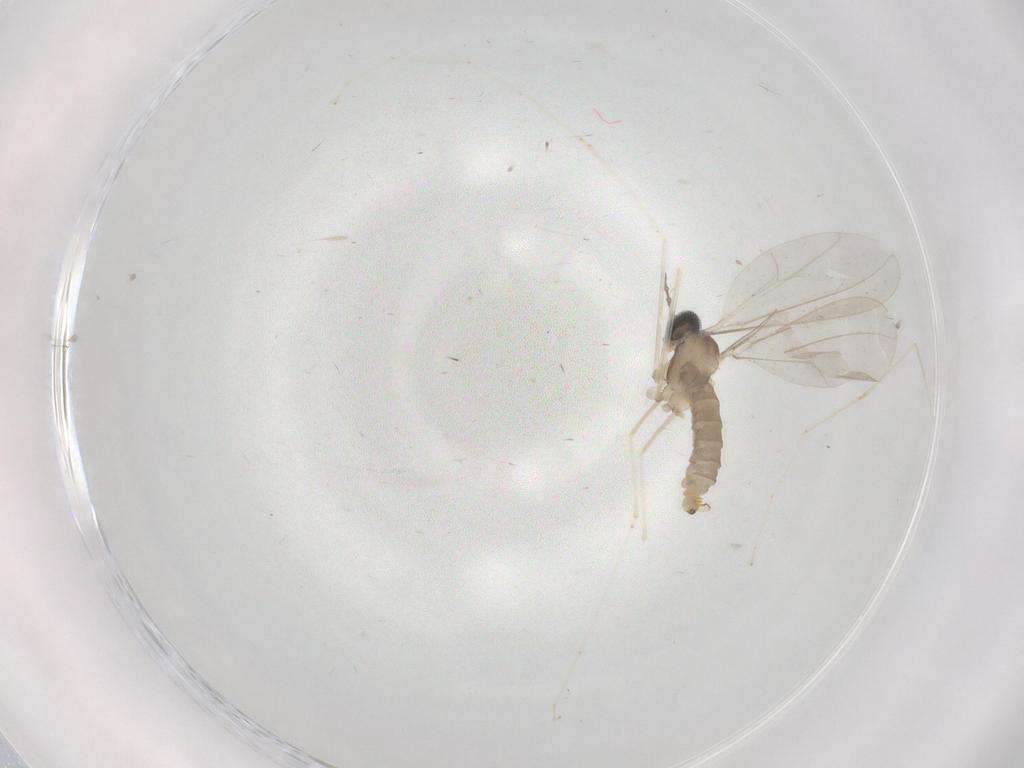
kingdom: Animalia
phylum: Arthropoda
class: Insecta
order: Diptera
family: Cecidomyiidae
